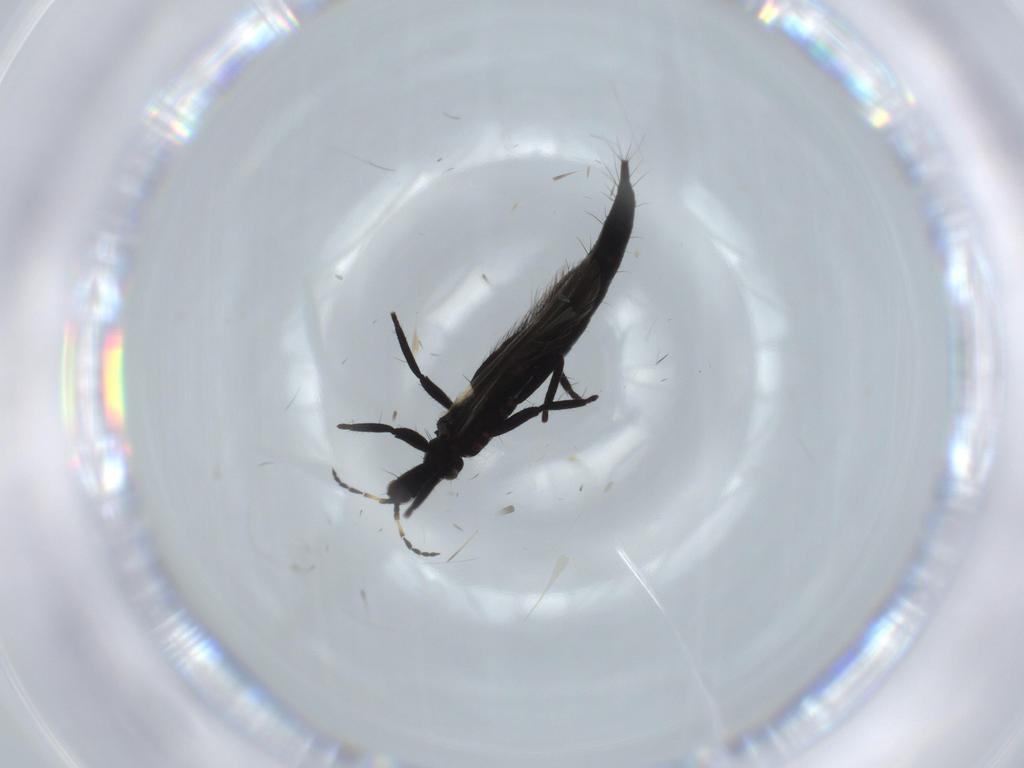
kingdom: Animalia
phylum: Arthropoda
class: Insecta
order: Thysanoptera
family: Phlaeothripidae
